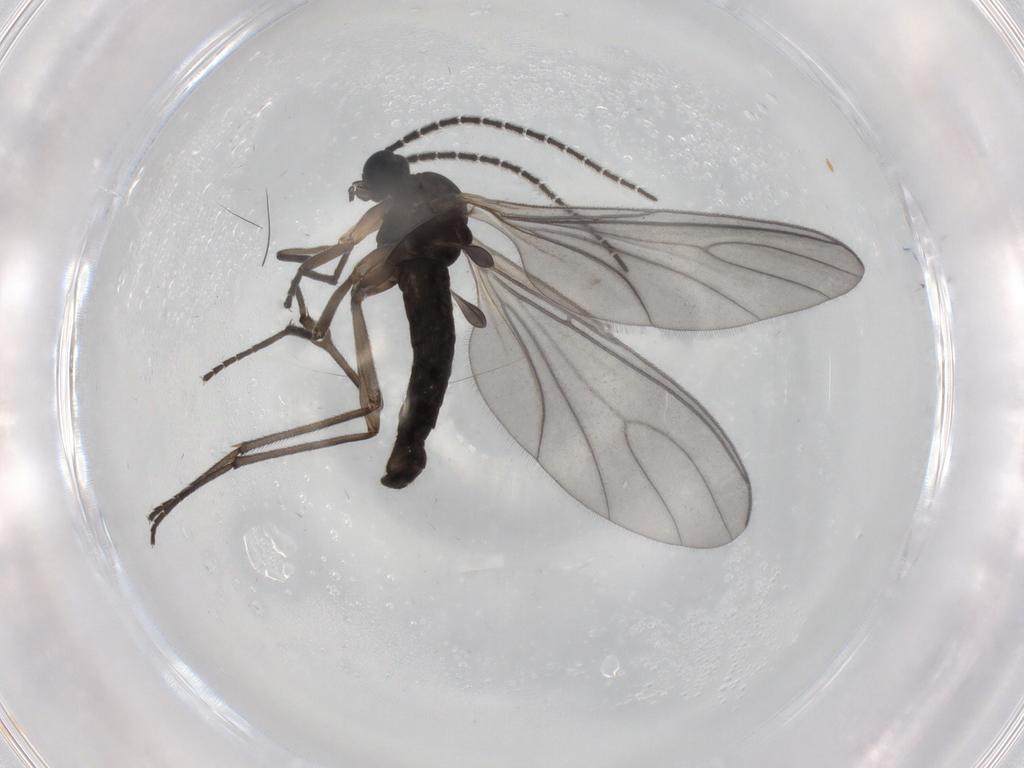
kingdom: Animalia
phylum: Arthropoda
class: Insecta
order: Diptera
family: Sciaridae
